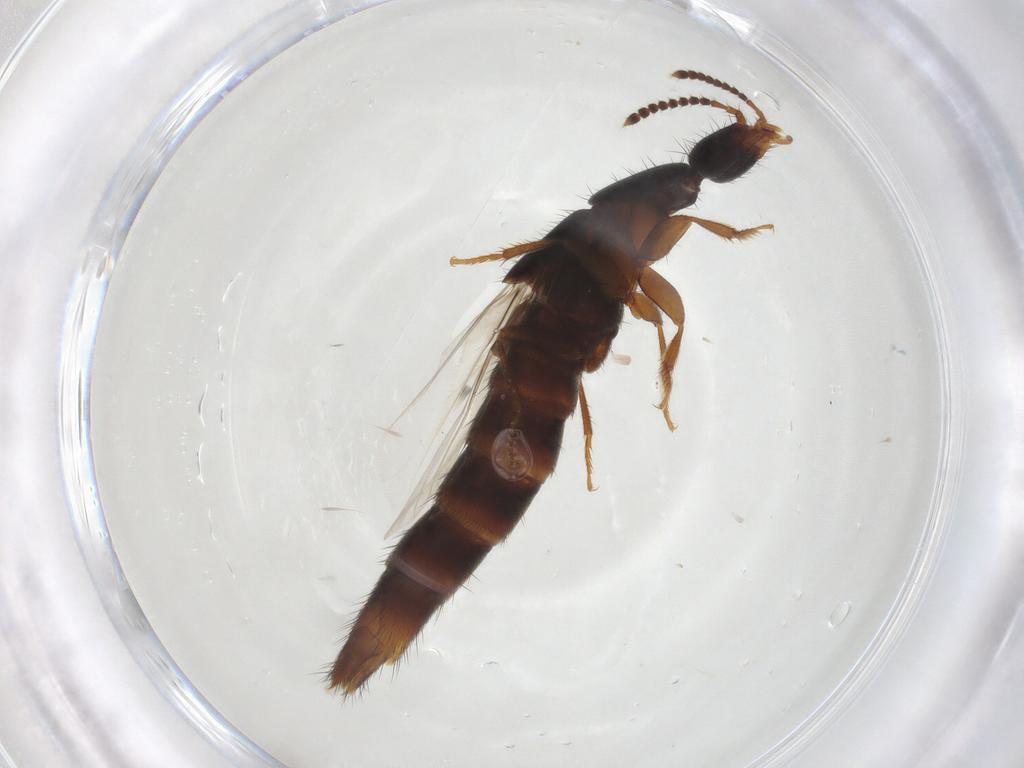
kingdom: Animalia
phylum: Arthropoda
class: Insecta
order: Coleoptera
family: Staphylinidae
